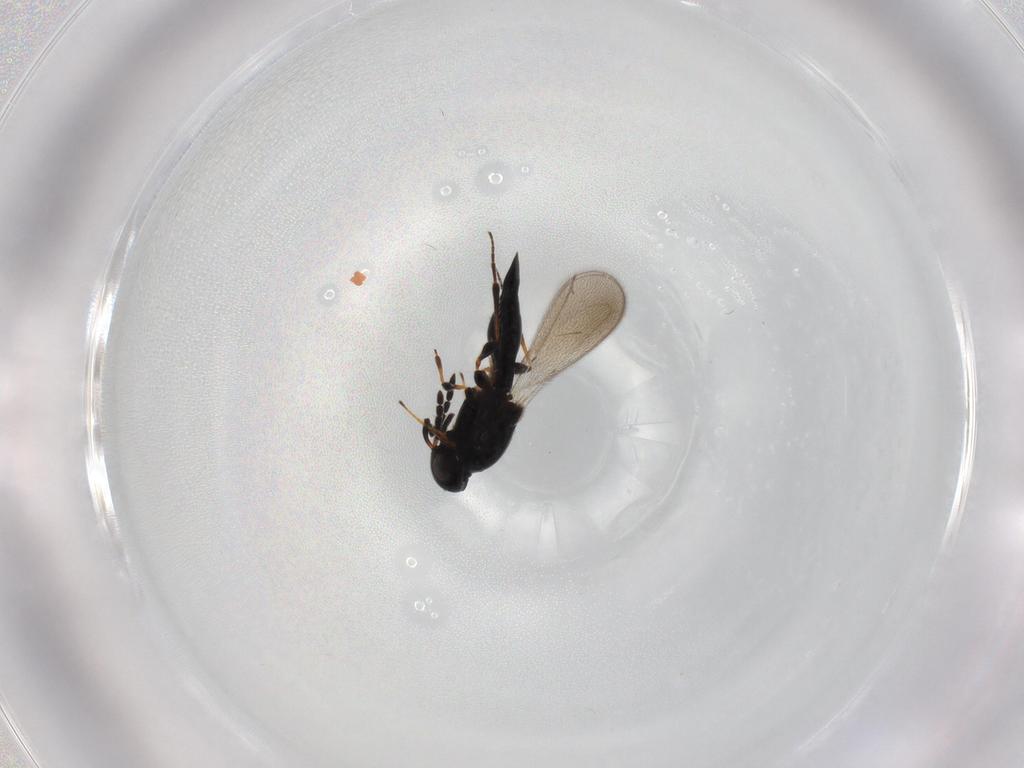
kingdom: Animalia
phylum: Arthropoda
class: Insecta
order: Hymenoptera
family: Platygastridae
